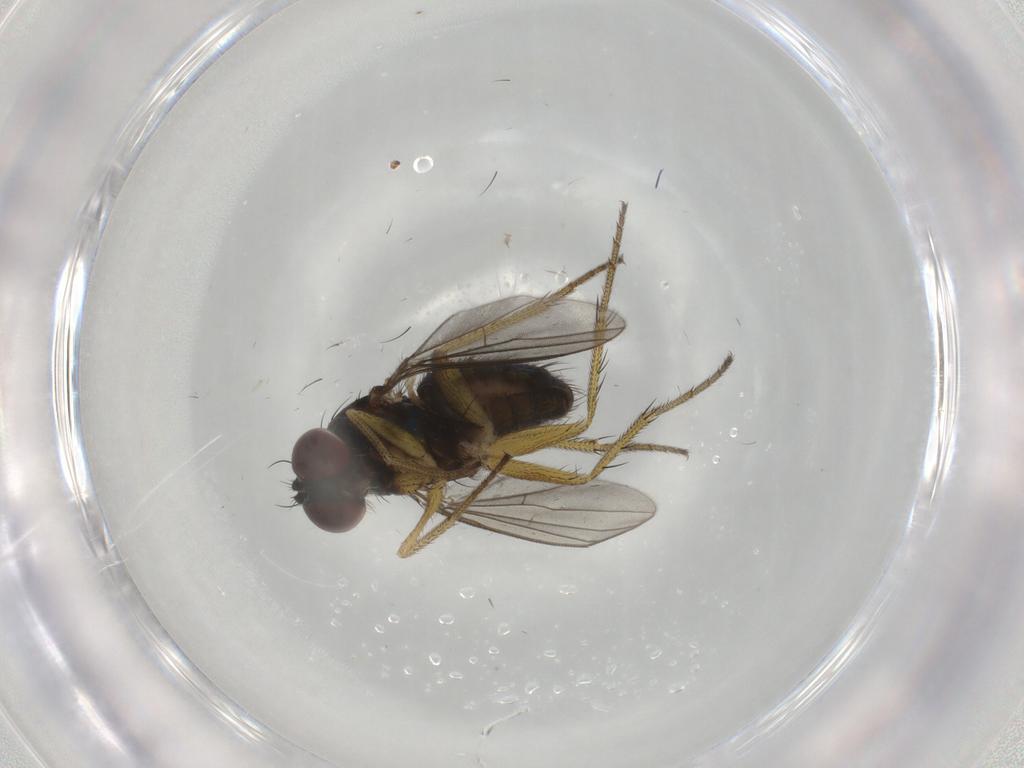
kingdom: Animalia
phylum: Arthropoda
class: Insecta
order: Diptera
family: Dolichopodidae
